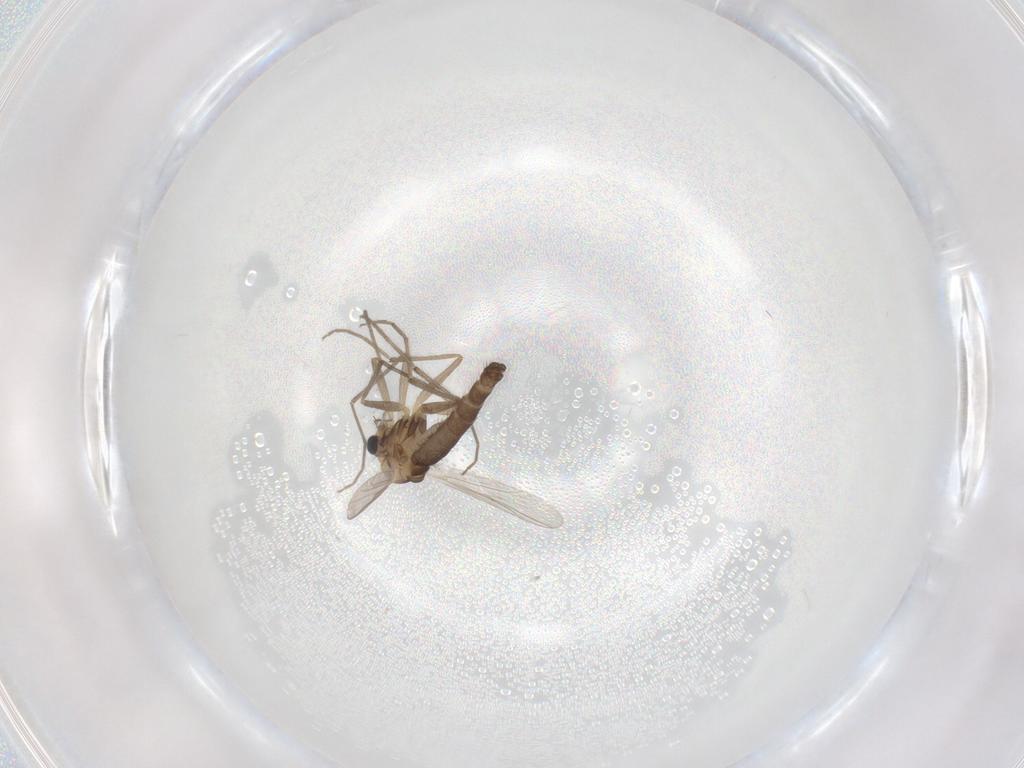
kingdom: Animalia
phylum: Arthropoda
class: Insecta
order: Diptera
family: Chironomidae
